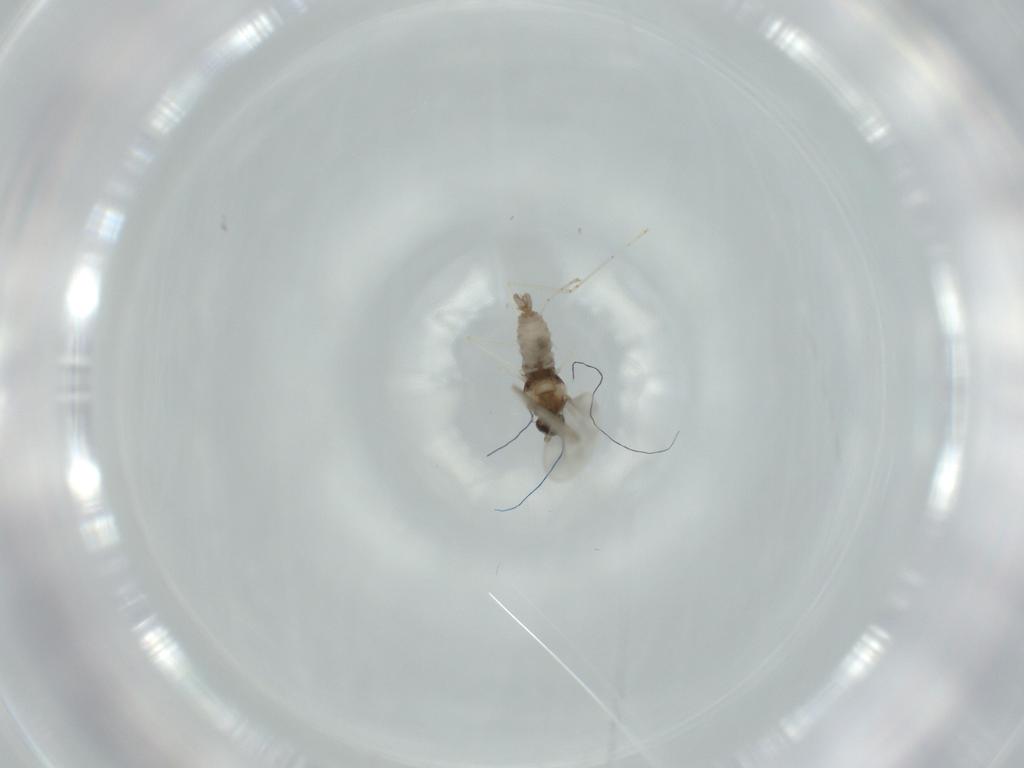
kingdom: Animalia
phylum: Arthropoda
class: Insecta
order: Diptera
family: Cecidomyiidae
